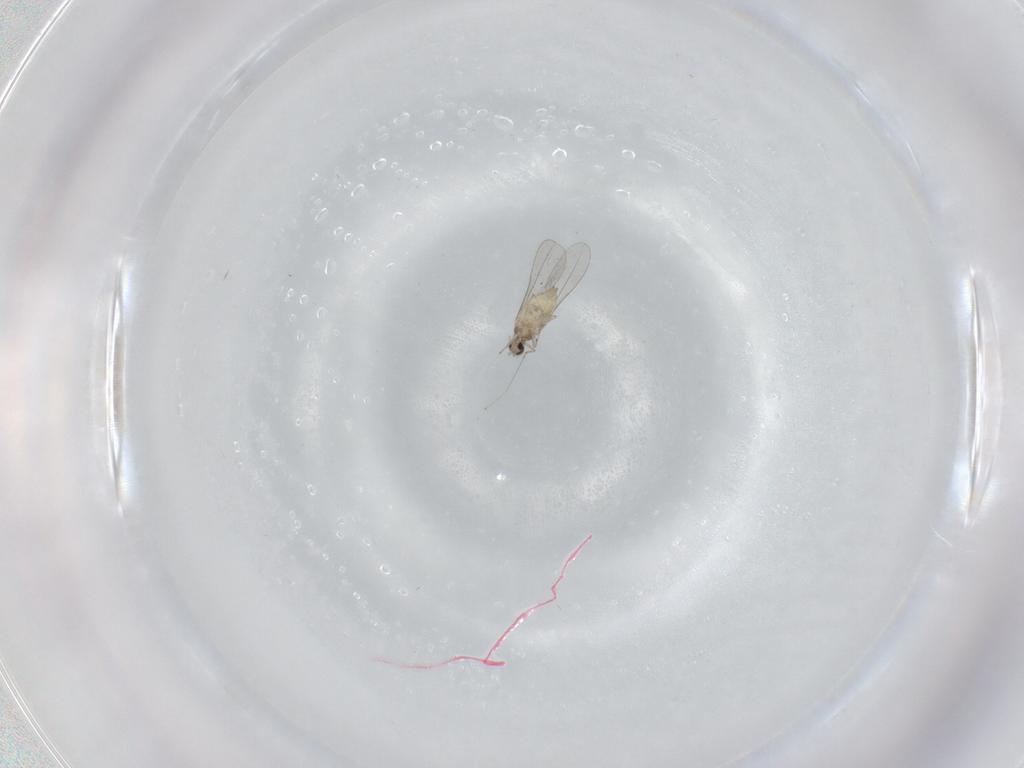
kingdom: Animalia
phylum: Arthropoda
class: Insecta
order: Diptera
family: Cecidomyiidae
